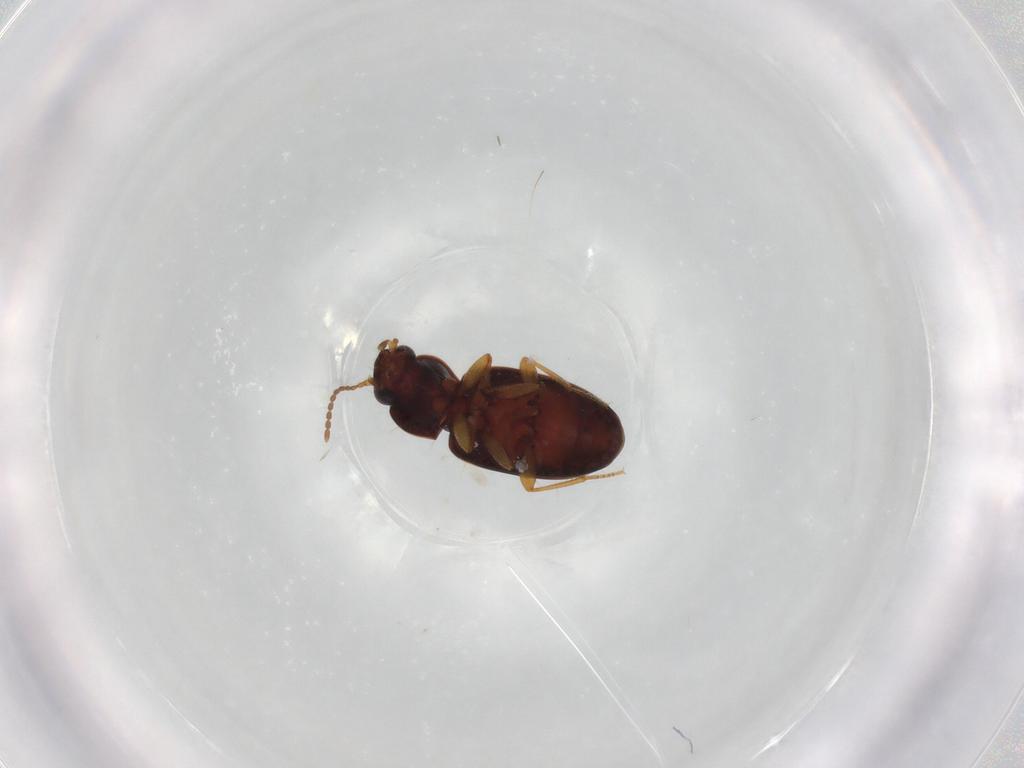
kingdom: Animalia
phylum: Arthropoda
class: Insecta
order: Coleoptera
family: Carabidae
